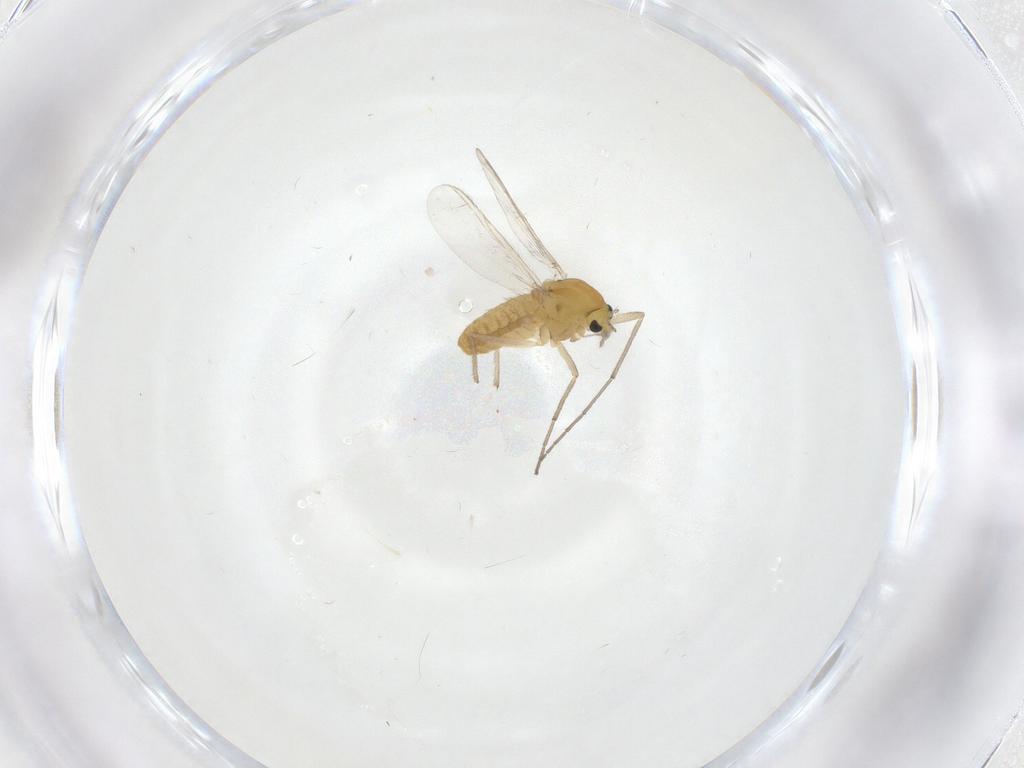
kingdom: Animalia
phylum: Arthropoda
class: Insecta
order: Diptera
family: Chironomidae
